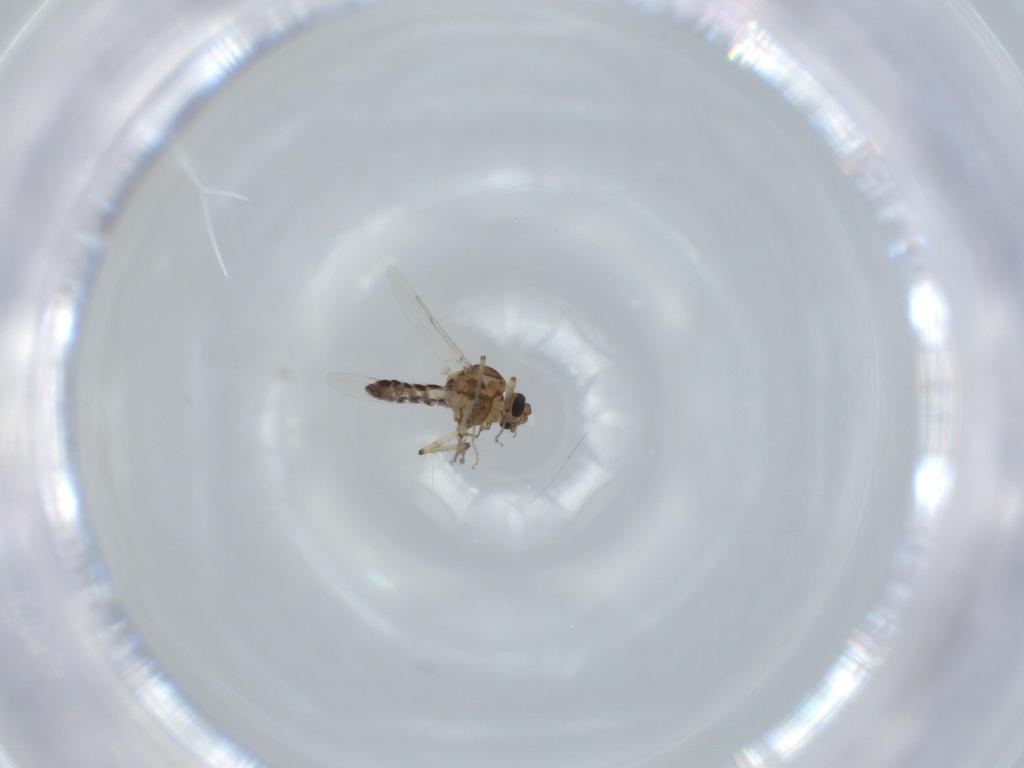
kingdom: Animalia
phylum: Arthropoda
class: Insecta
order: Diptera
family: Ceratopogonidae
